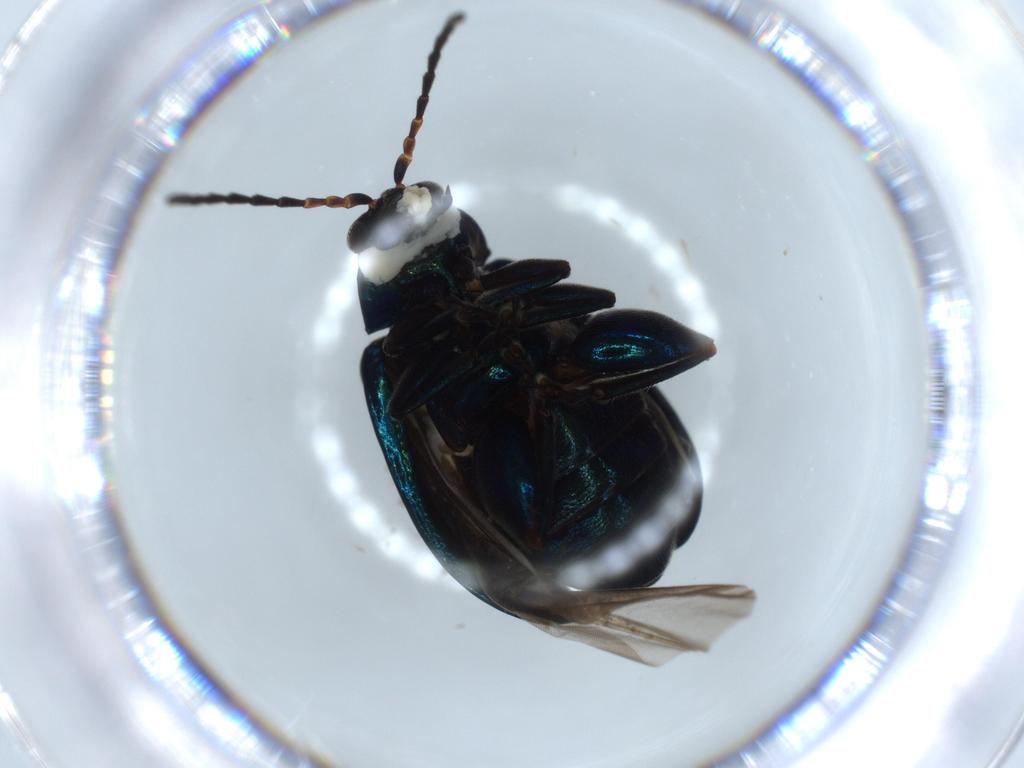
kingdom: Animalia
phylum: Arthropoda
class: Insecta
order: Coleoptera
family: Chrysomelidae
